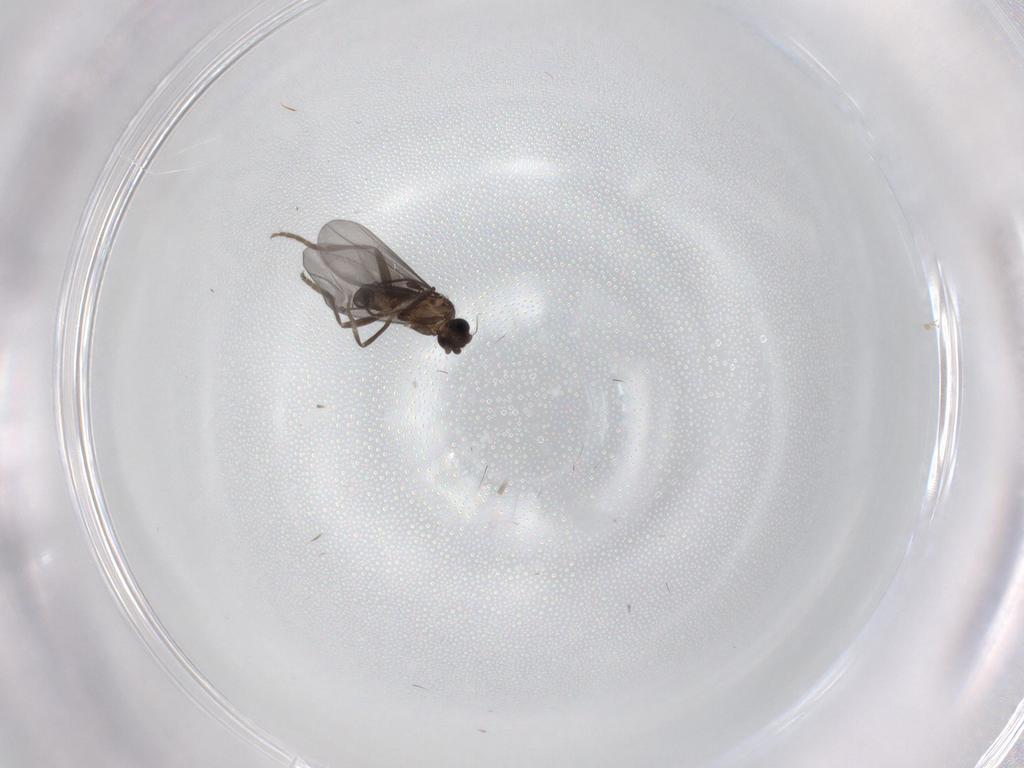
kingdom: Animalia
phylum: Arthropoda
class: Insecta
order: Diptera
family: Phoridae
